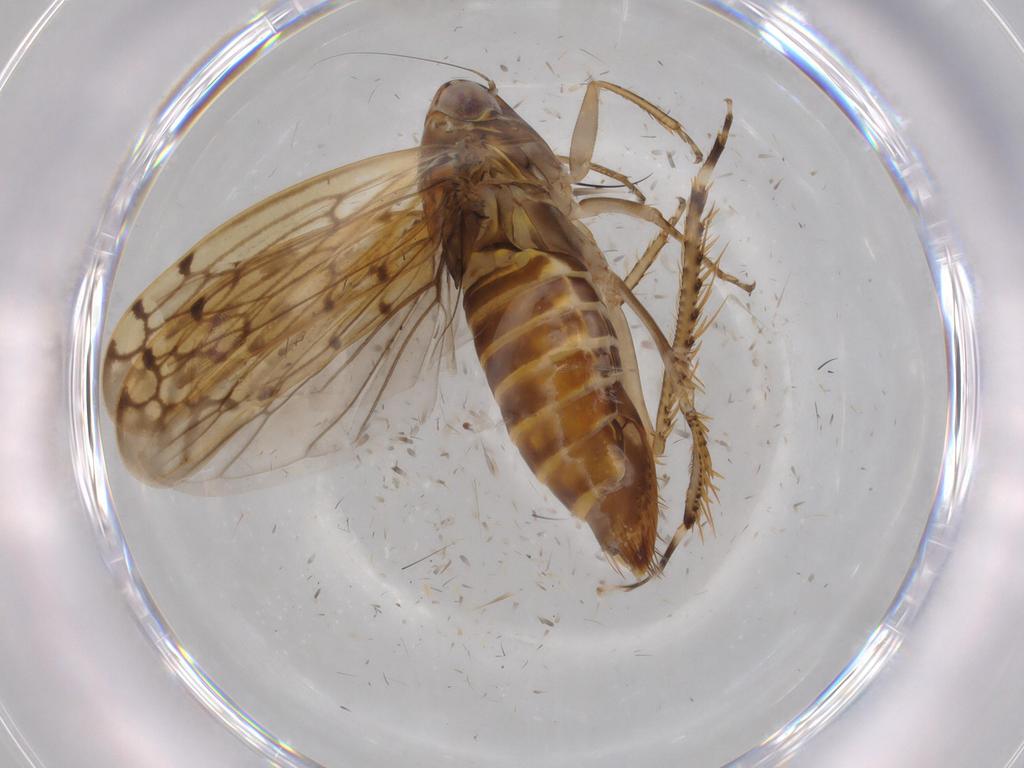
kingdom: Animalia
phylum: Arthropoda
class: Insecta
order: Hemiptera
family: Cicadellidae
